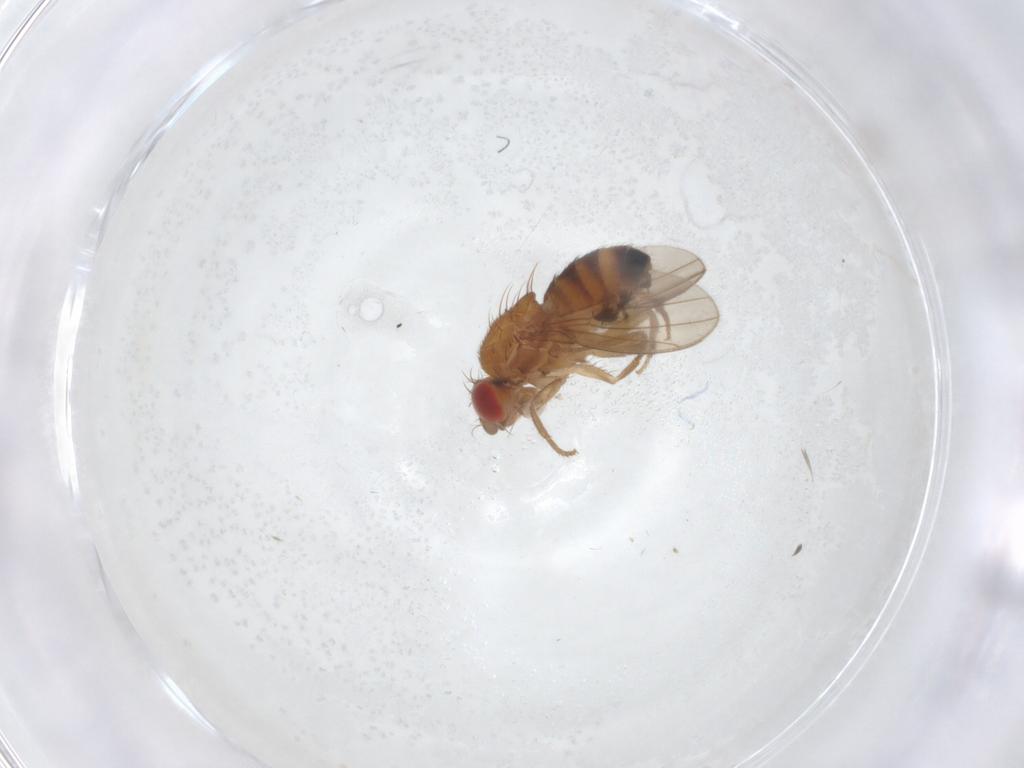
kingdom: Animalia
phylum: Arthropoda
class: Insecta
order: Diptera
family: Drosophilidae
